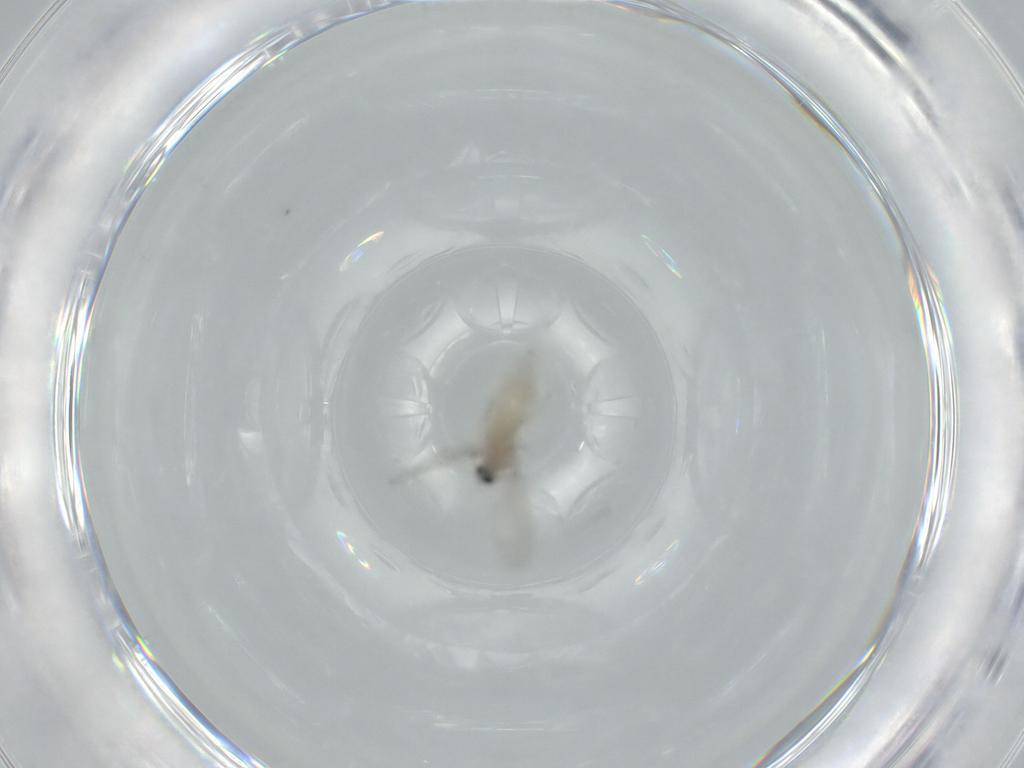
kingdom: Animalia
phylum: Arthropoda
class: Insecta
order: Diptera
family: Cecidomyiidae
